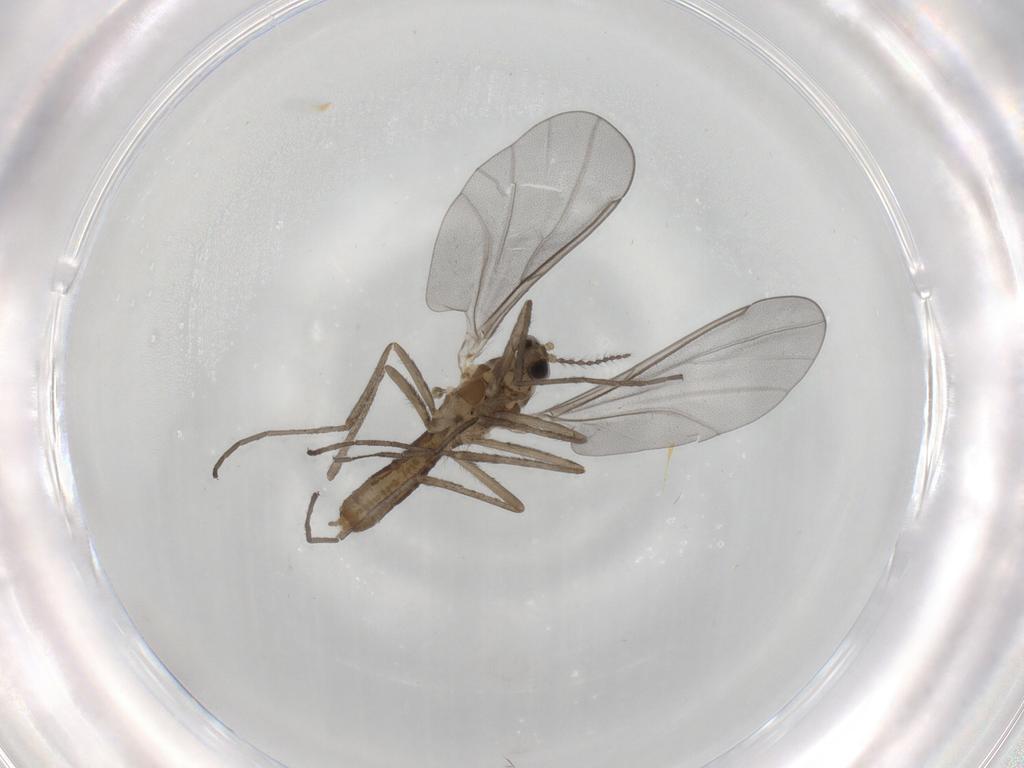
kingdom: Animalia
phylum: Arthropoda
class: Insecta
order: Diptera
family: Cecidomyiidae
